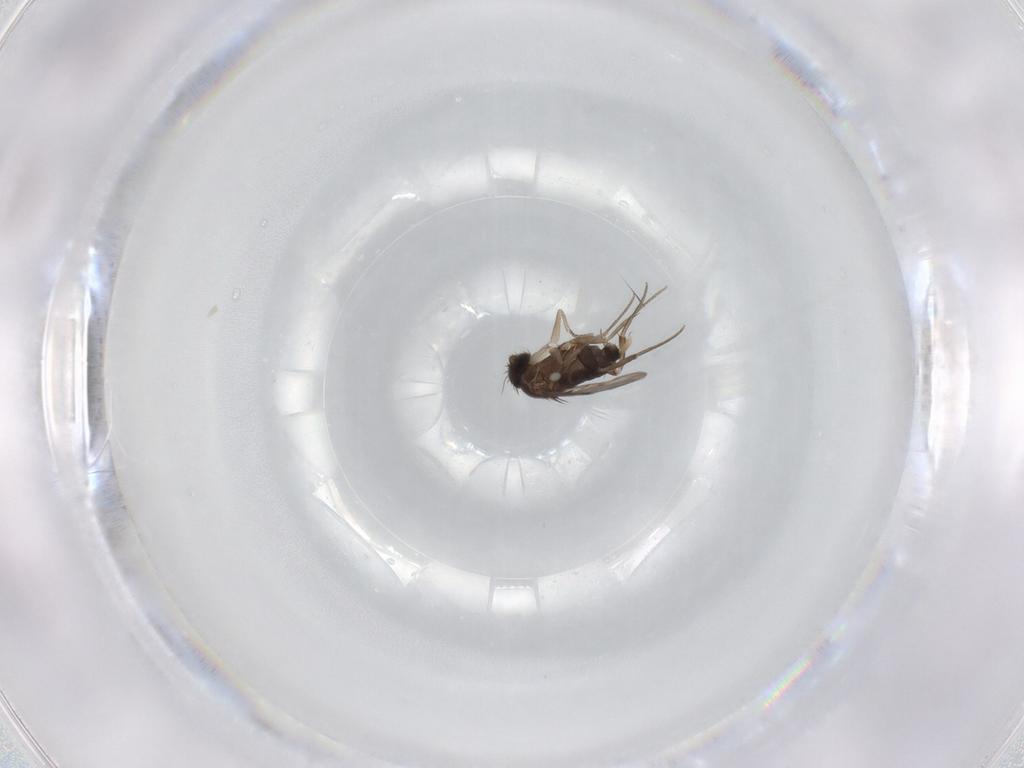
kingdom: Animalia
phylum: Arthropoda
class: Insecta
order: Diptera
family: Phoridae
